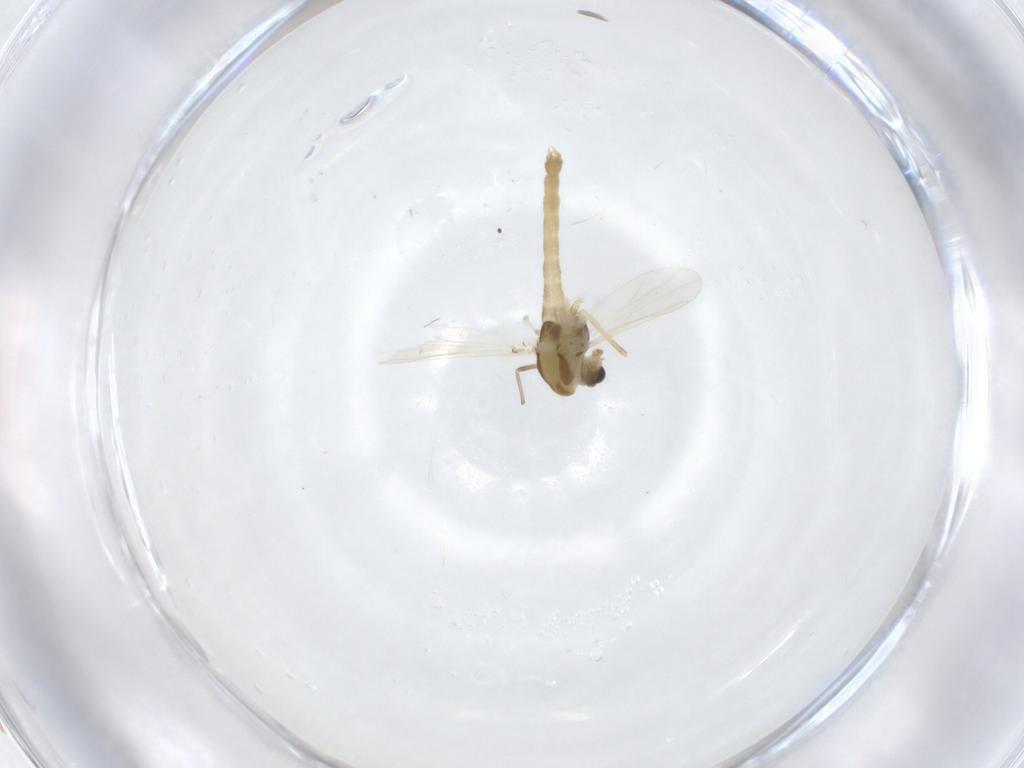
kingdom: Animalia
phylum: Arthropoda
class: Insecta
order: Diptera
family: Chironomidae
